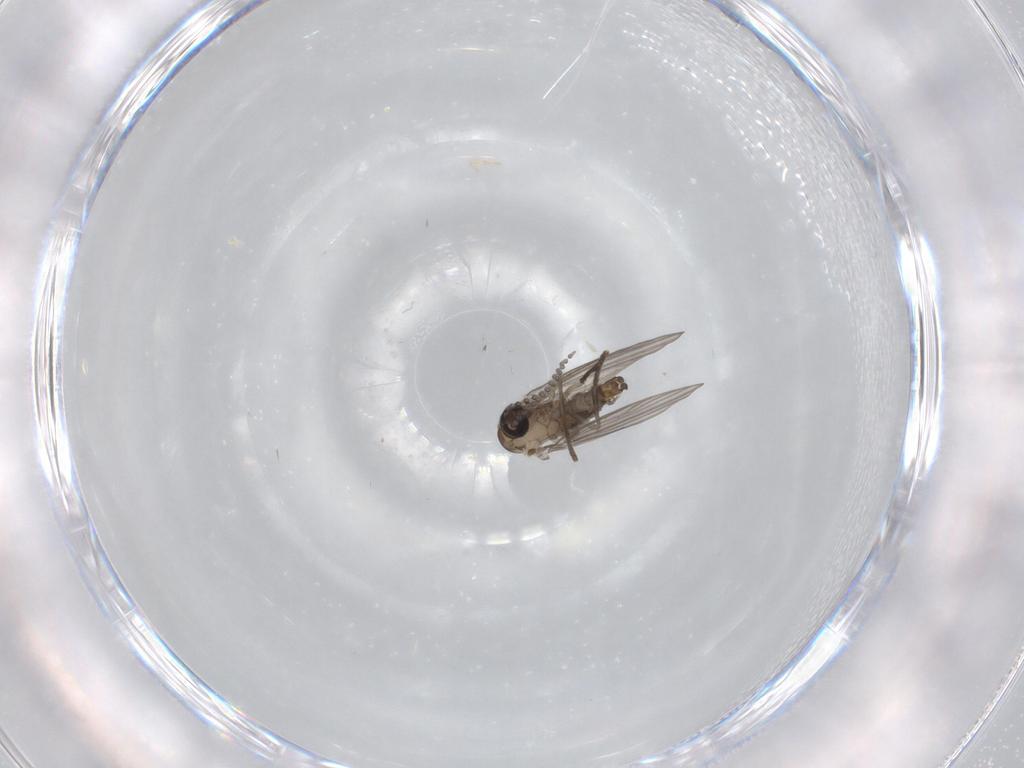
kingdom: Animalia
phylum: Arthropoda
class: Insecta
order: Diptera
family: Psychodidae
